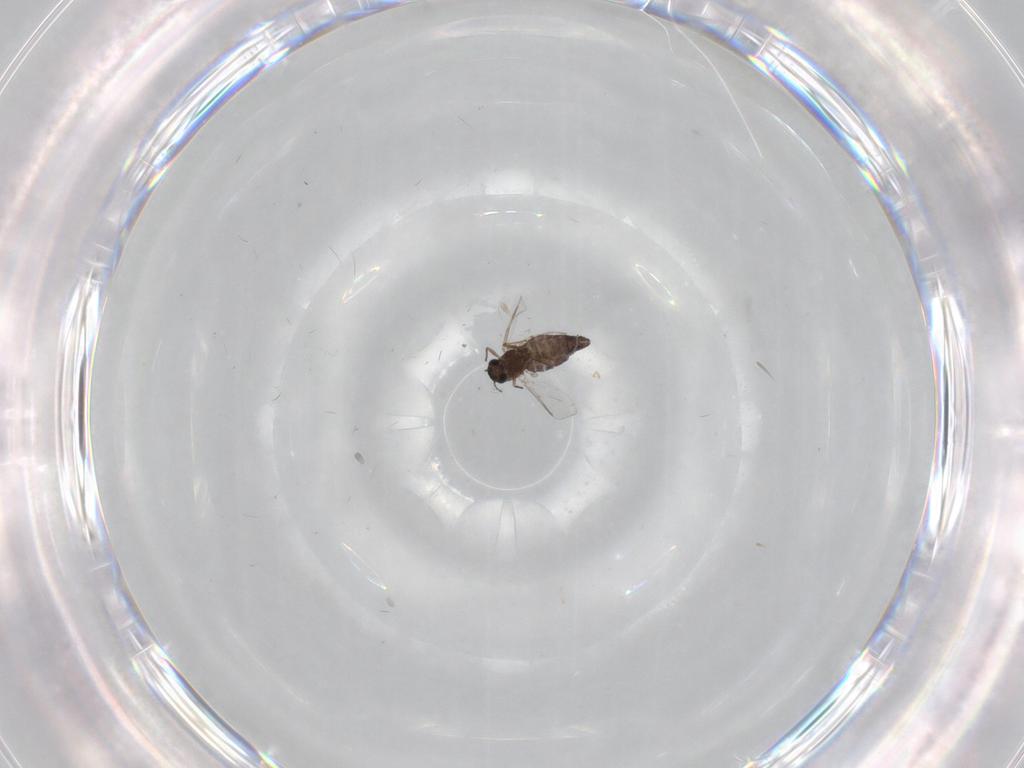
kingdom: Animalia
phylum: Arthropoda
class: Insecta
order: Diptera
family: Chironomidae
